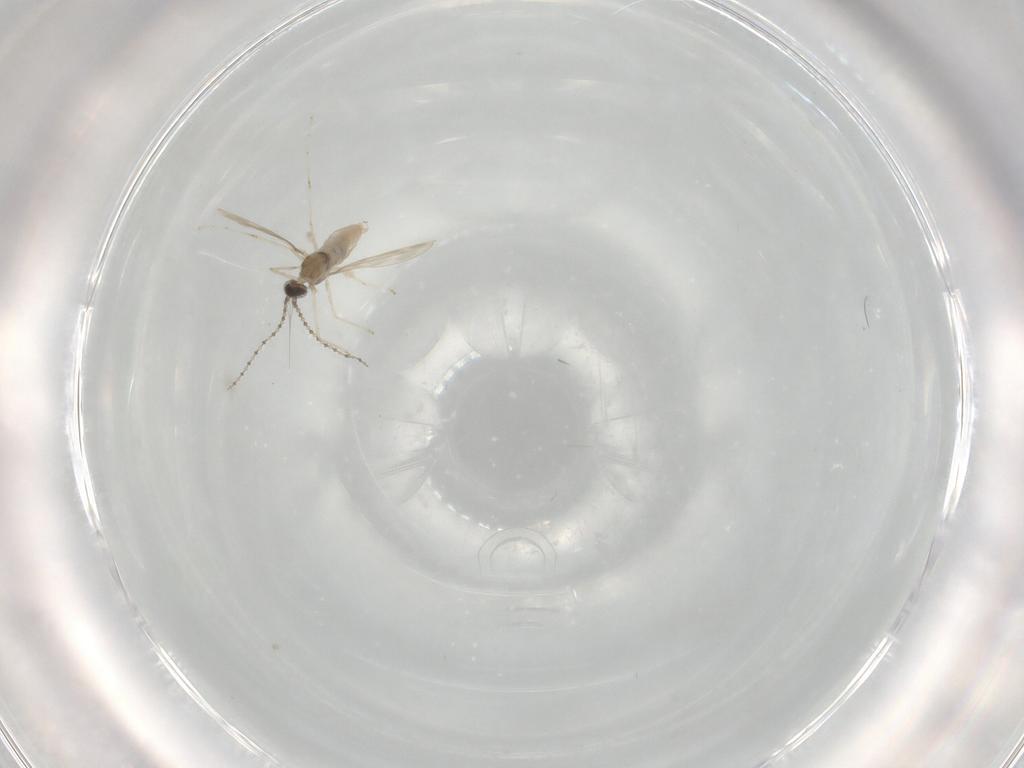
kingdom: Animalia
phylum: Arthropoda
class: Insecta
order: Diptera
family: Cecidomyiidae
